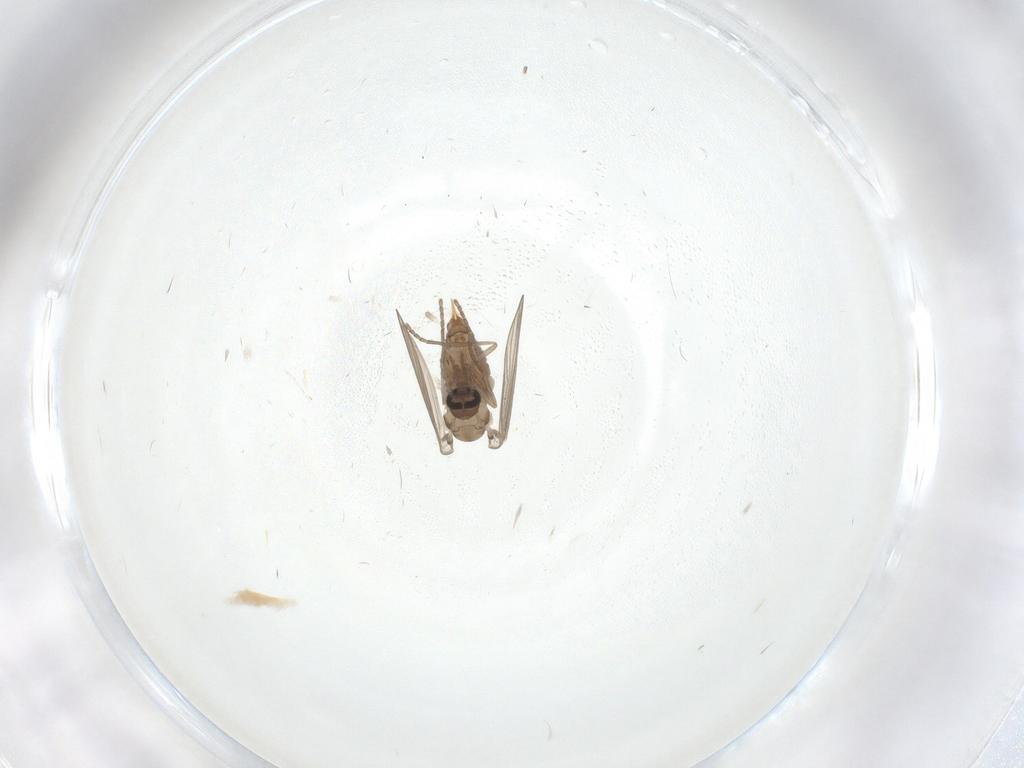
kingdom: Animalia
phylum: Arthropoda
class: Insecta
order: Diptera
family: Psychodidae
